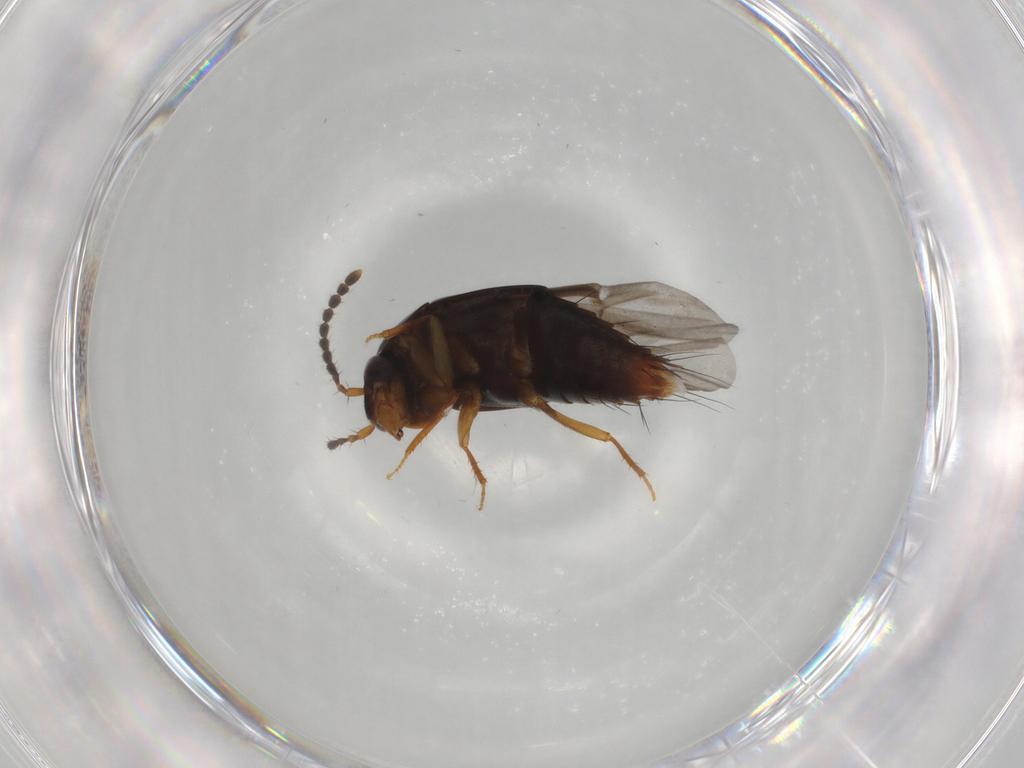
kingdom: Animalia
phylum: Arthropoda
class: Insecta
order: Coleoptera
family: Staphylinidae
